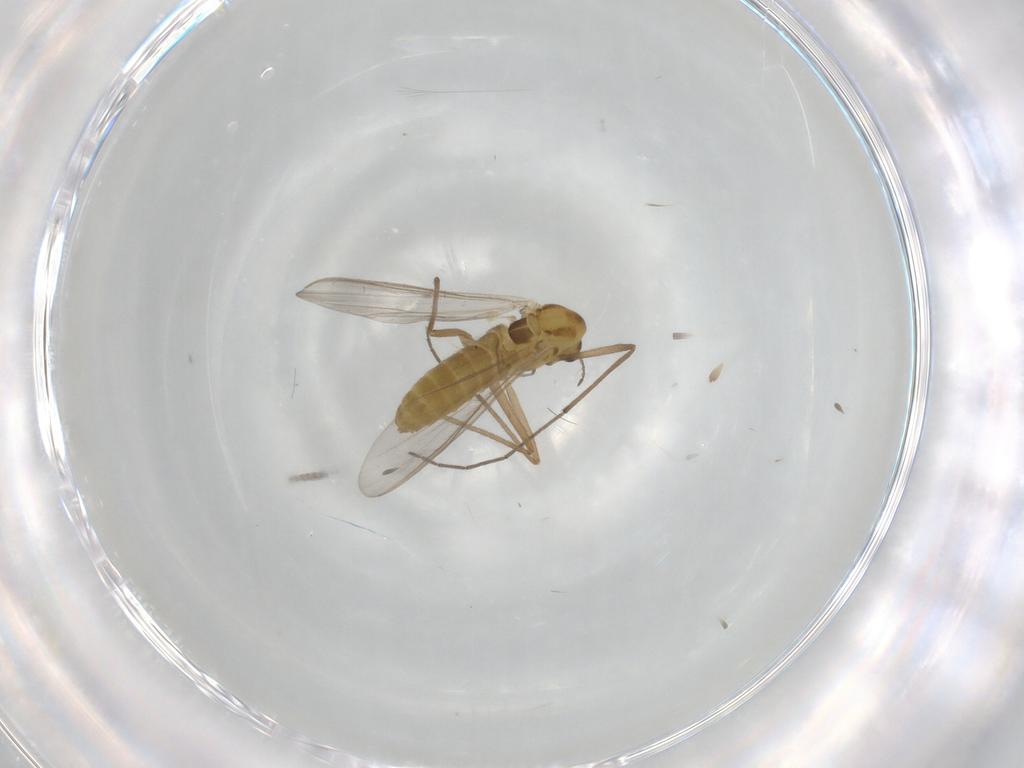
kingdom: Animalia
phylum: Arthropoda
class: Insecta
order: Diptera
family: Chironomidae
